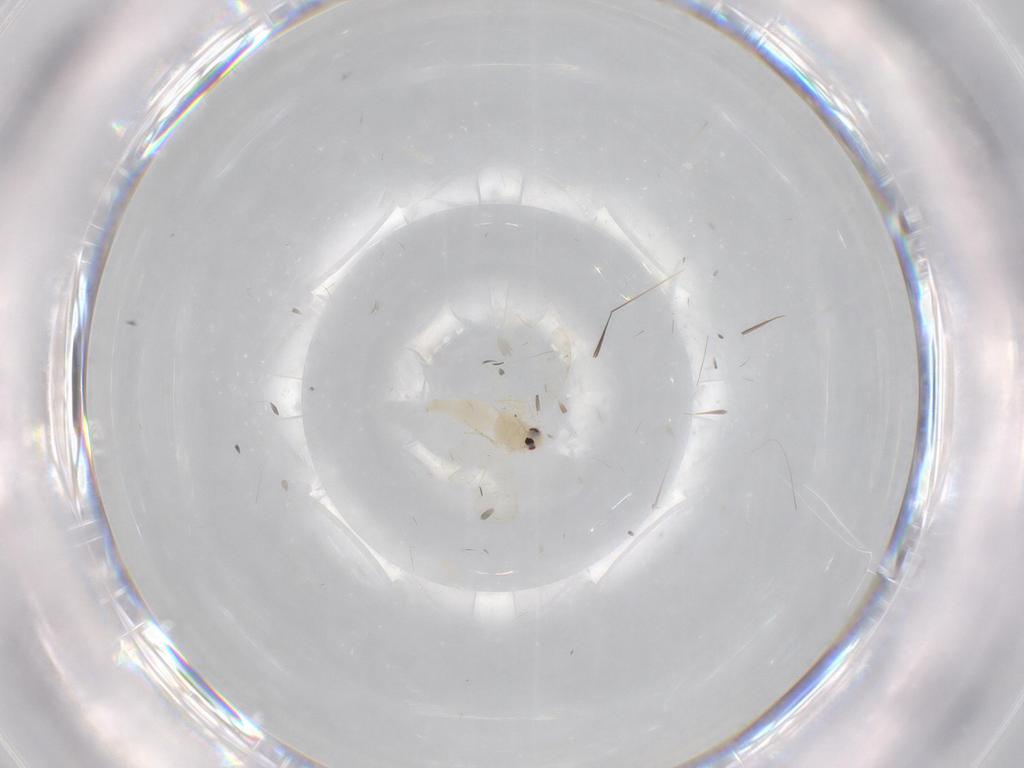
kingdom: Animalia
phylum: Arthropoda
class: Insecta
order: Hemiptera
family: Aleyrodidae
